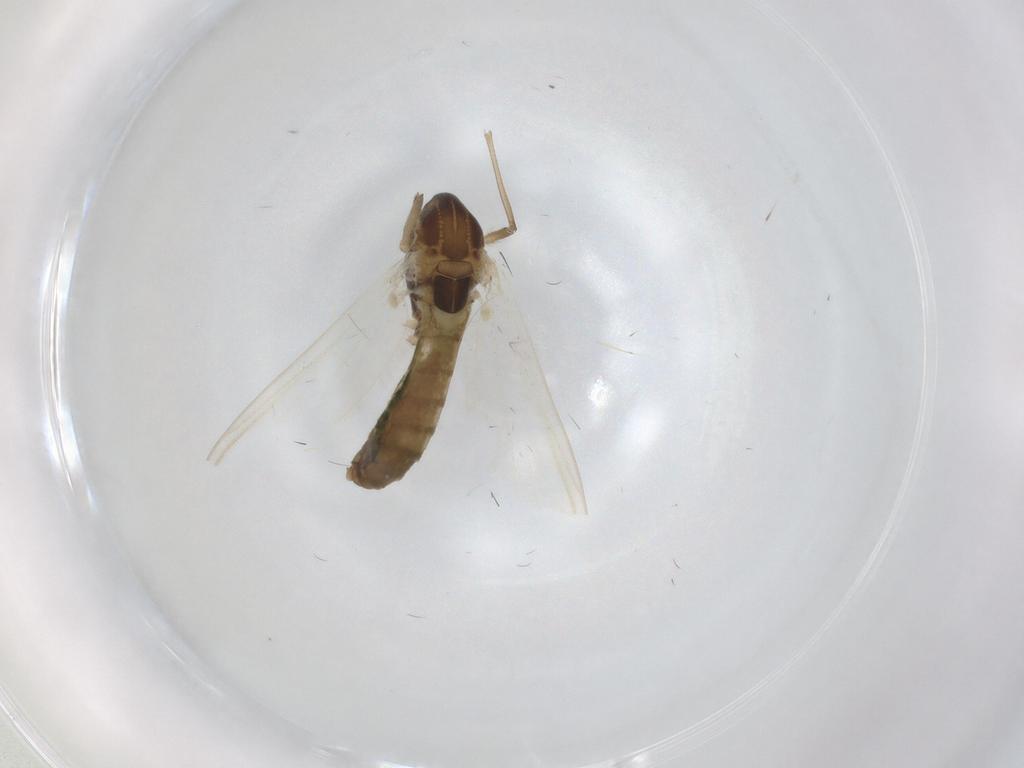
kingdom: Animalia
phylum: Arthropoda
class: Insecta
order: Diptera
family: Chironomidae
